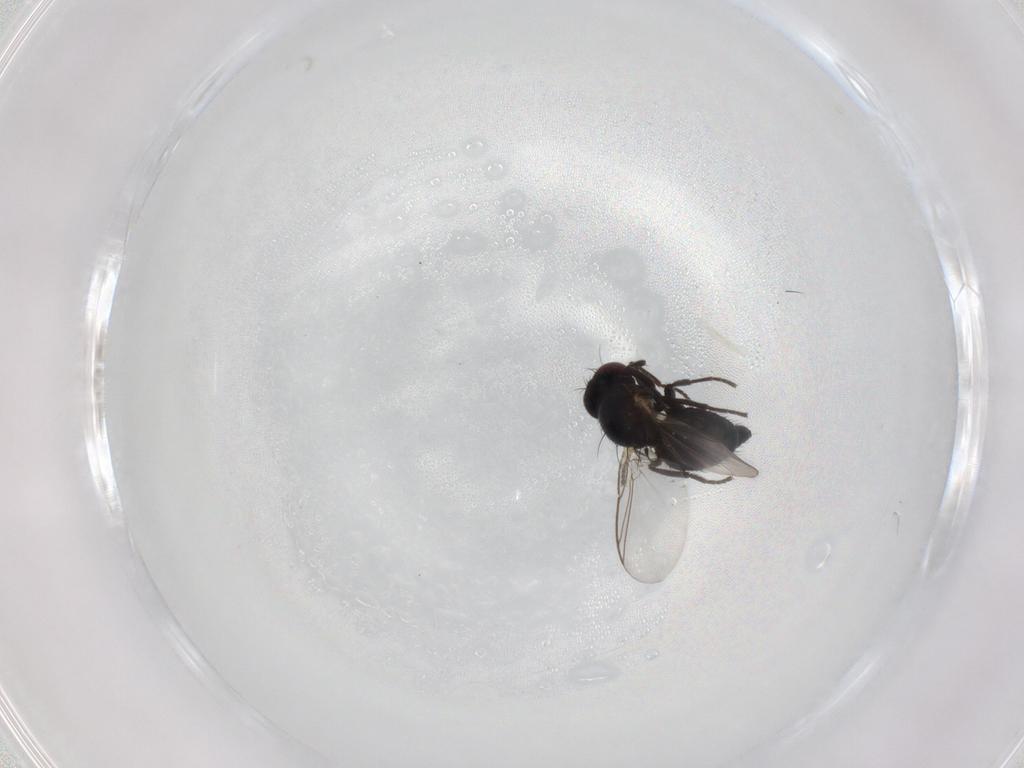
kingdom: Animalia
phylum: Arthropoda
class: Insecta
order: Diptera
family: Agromyzidae
